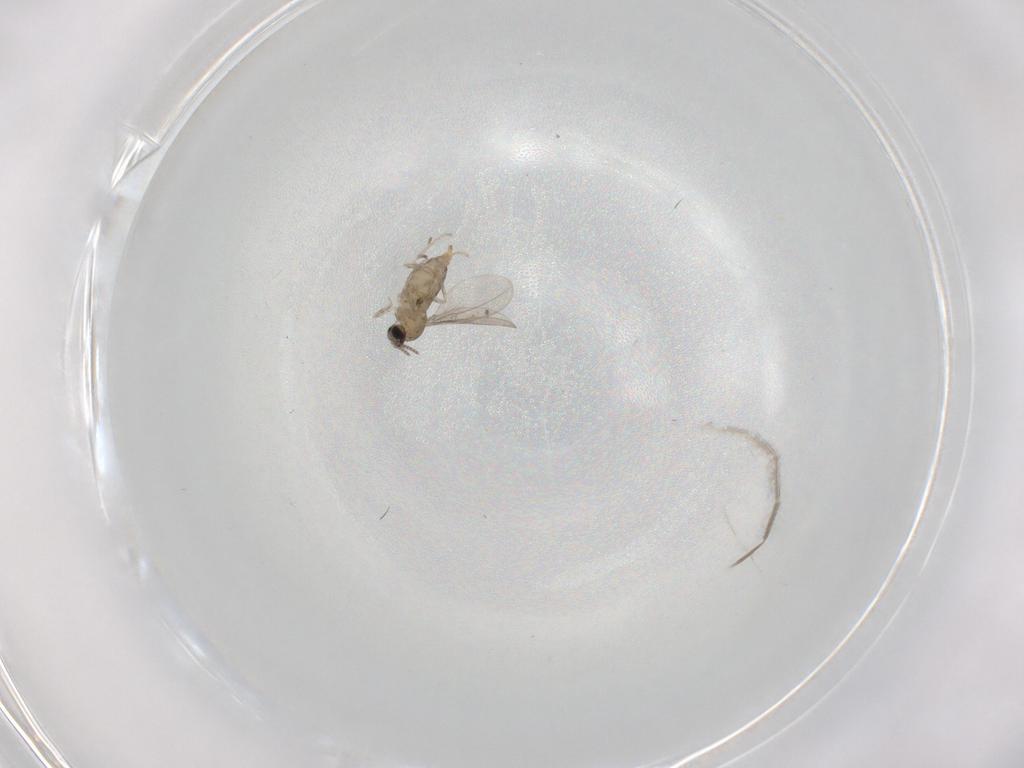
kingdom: Animalia
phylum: Arthropoda
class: Insecta
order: Diptera
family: Cecidomyiidae
